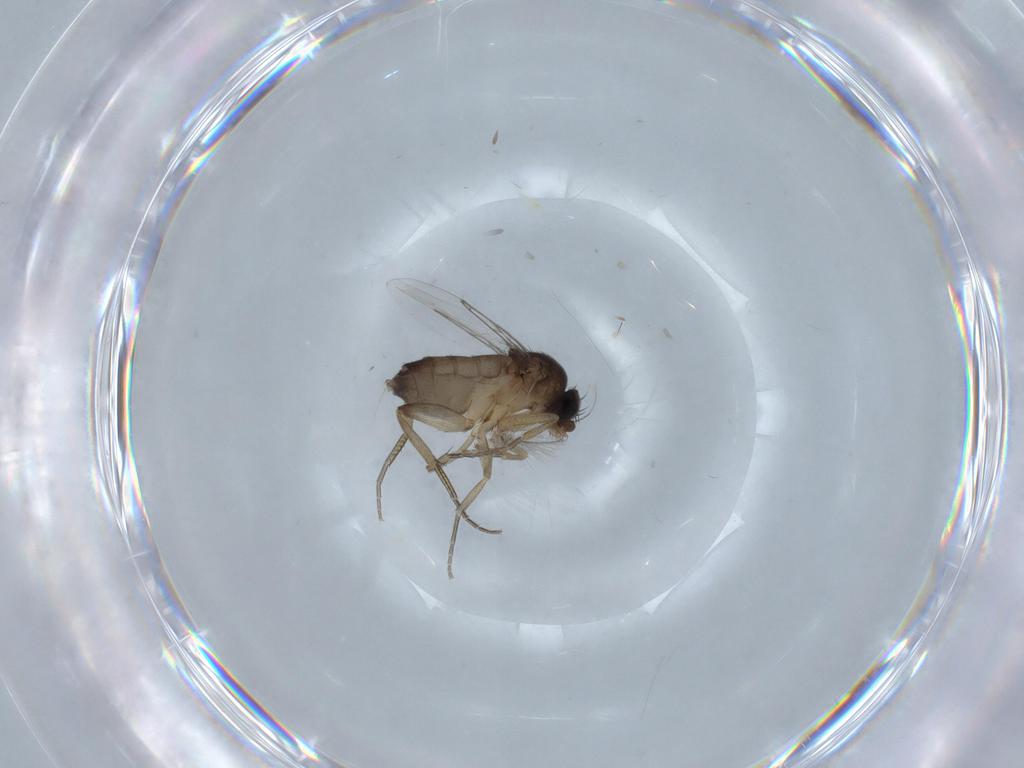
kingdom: Animalia
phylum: Arthropoda
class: Insecta
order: Diptera
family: Phoridae
